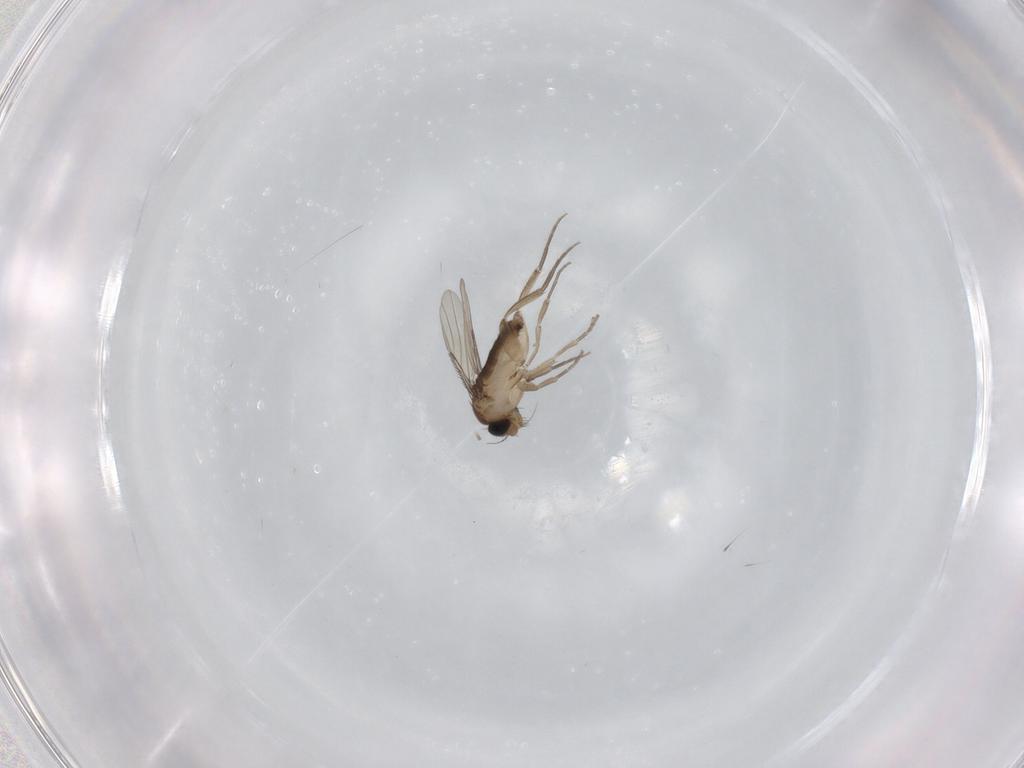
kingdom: Animalia
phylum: Arthropoda
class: Insecta
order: Diptera
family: Phoridae
